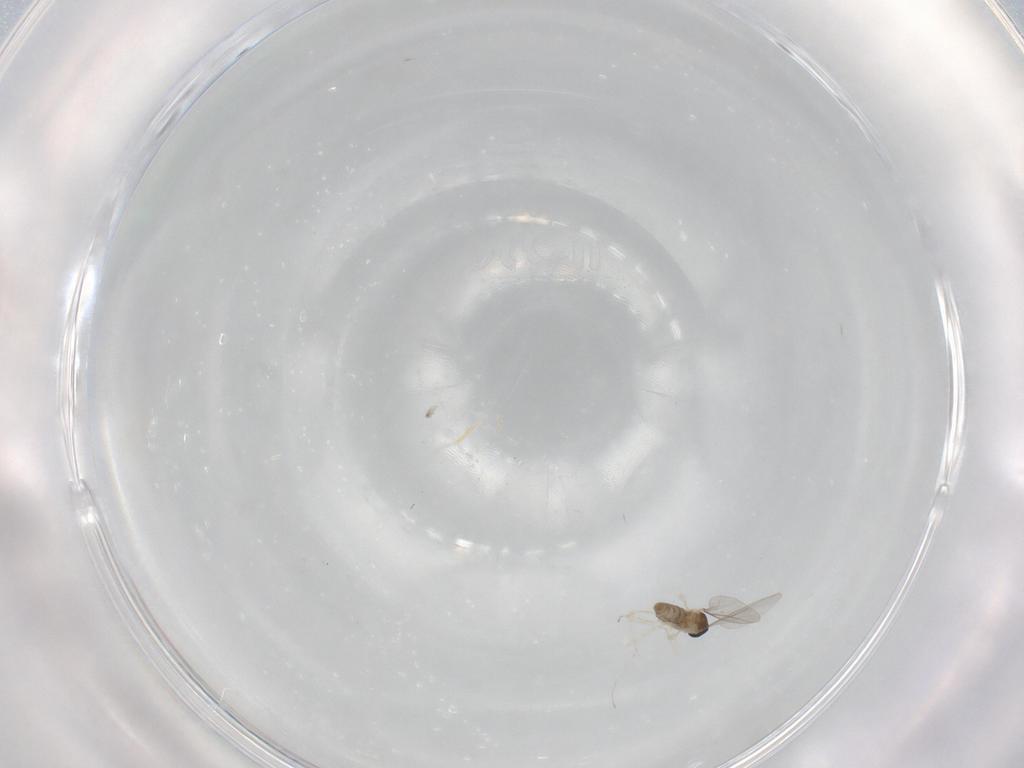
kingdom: Animalia
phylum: Arthropoda
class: Insecta
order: Diptera
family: Cecidomyiidae
